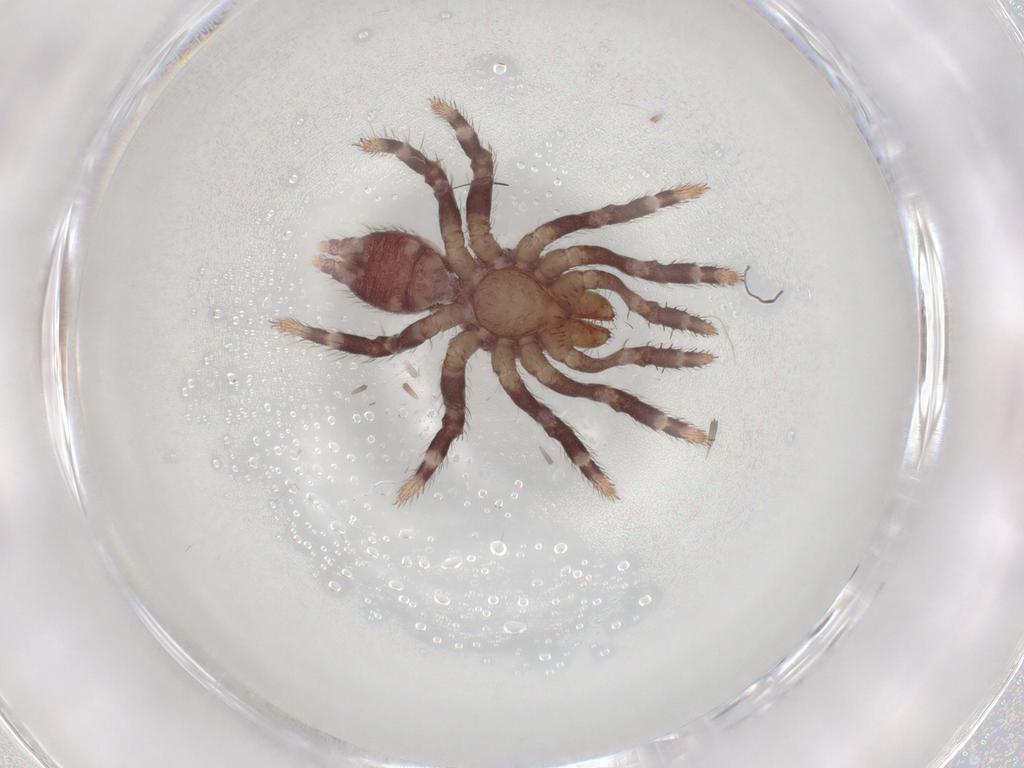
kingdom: Animalia
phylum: Arthropoda
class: Arachnida
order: Araneae
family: Halonoproctidae
